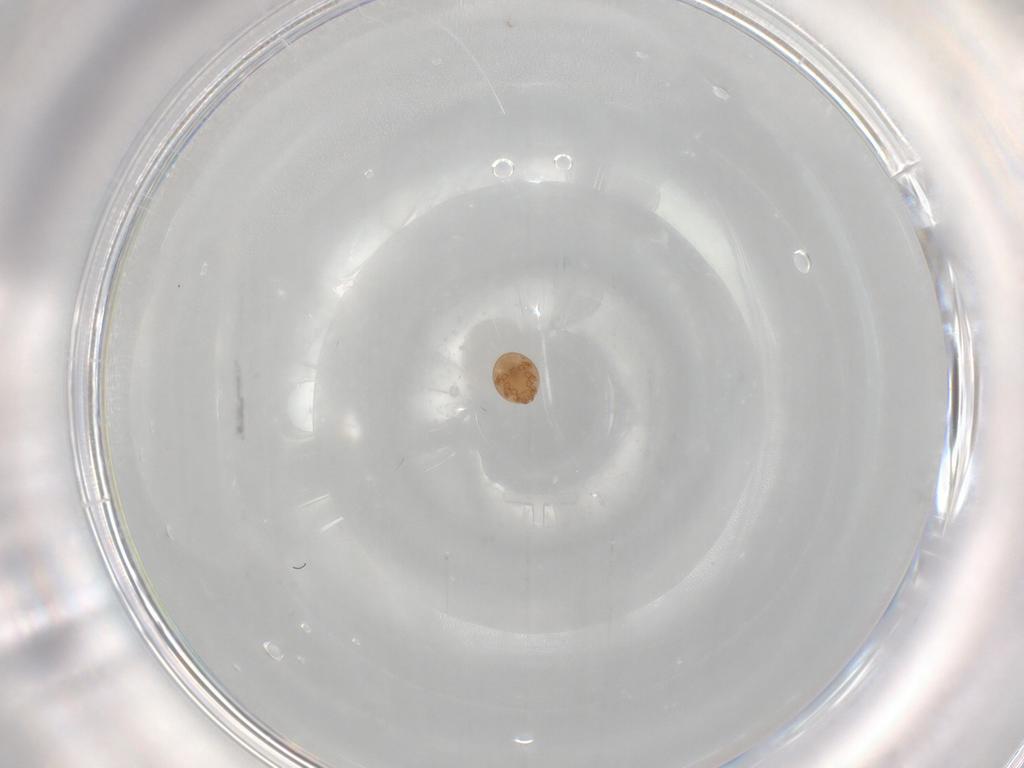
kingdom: Animalia
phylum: Arthropoda
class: Arachnida
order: Mesostigmata
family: Trematuridae
